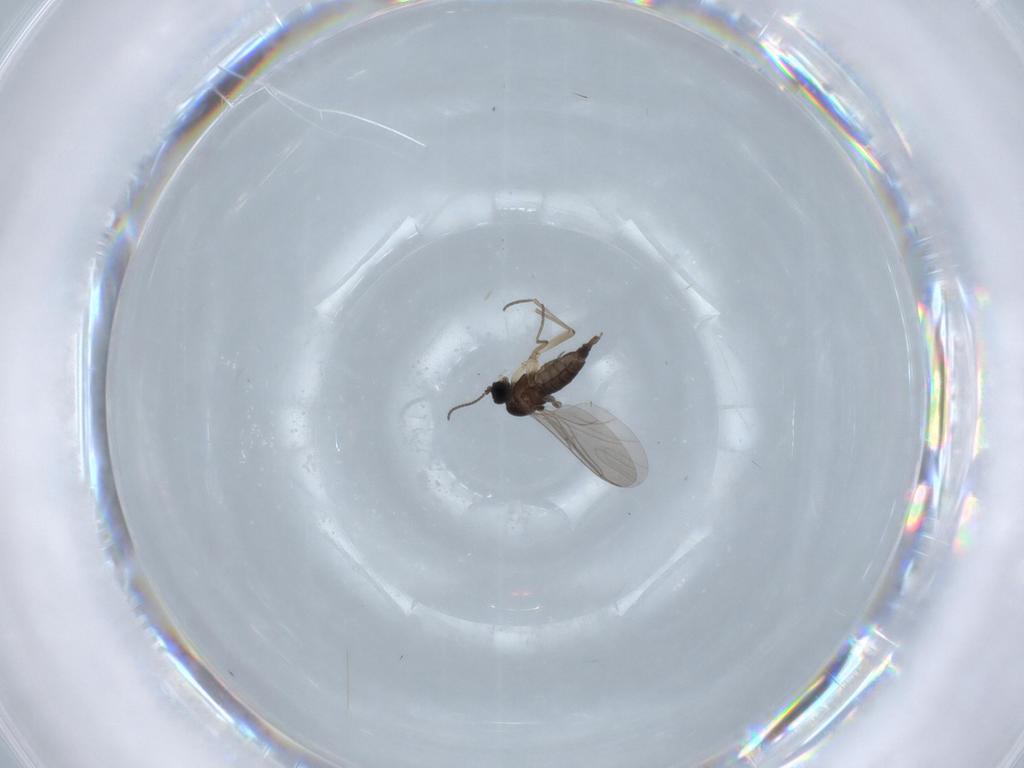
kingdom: Animalia
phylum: Arthropoda
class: Insecta
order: Diptera
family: Sciaridae
